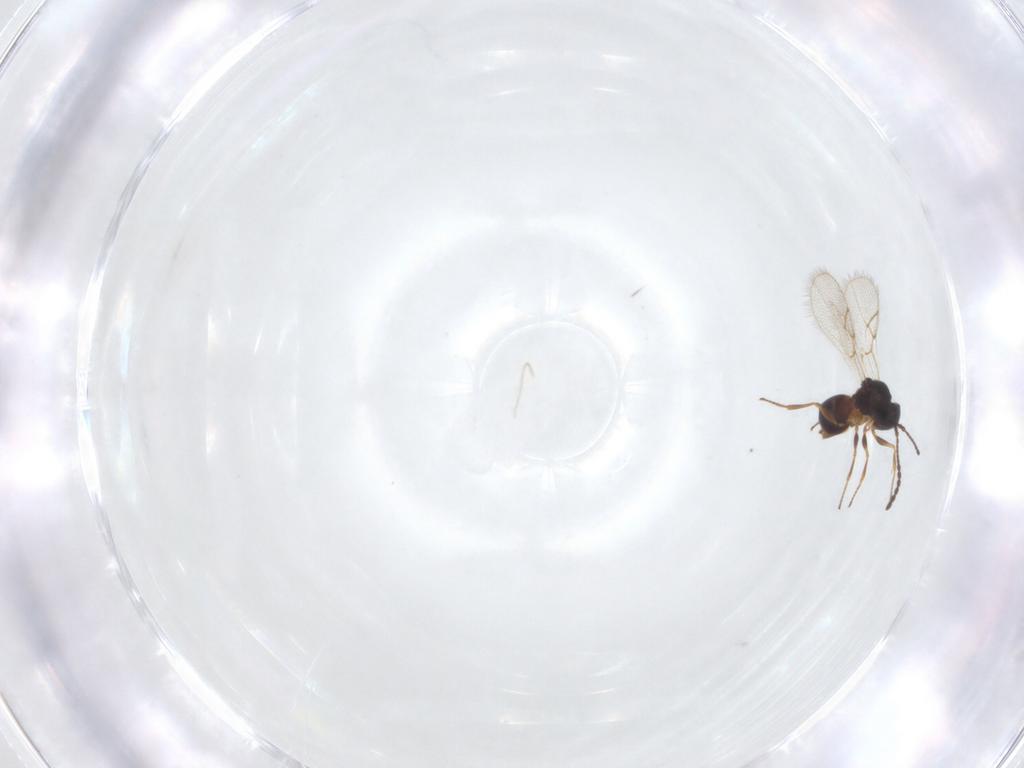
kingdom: Animalia
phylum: Arthropoda
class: Insecta
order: Hymenoptera
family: Figitidae
